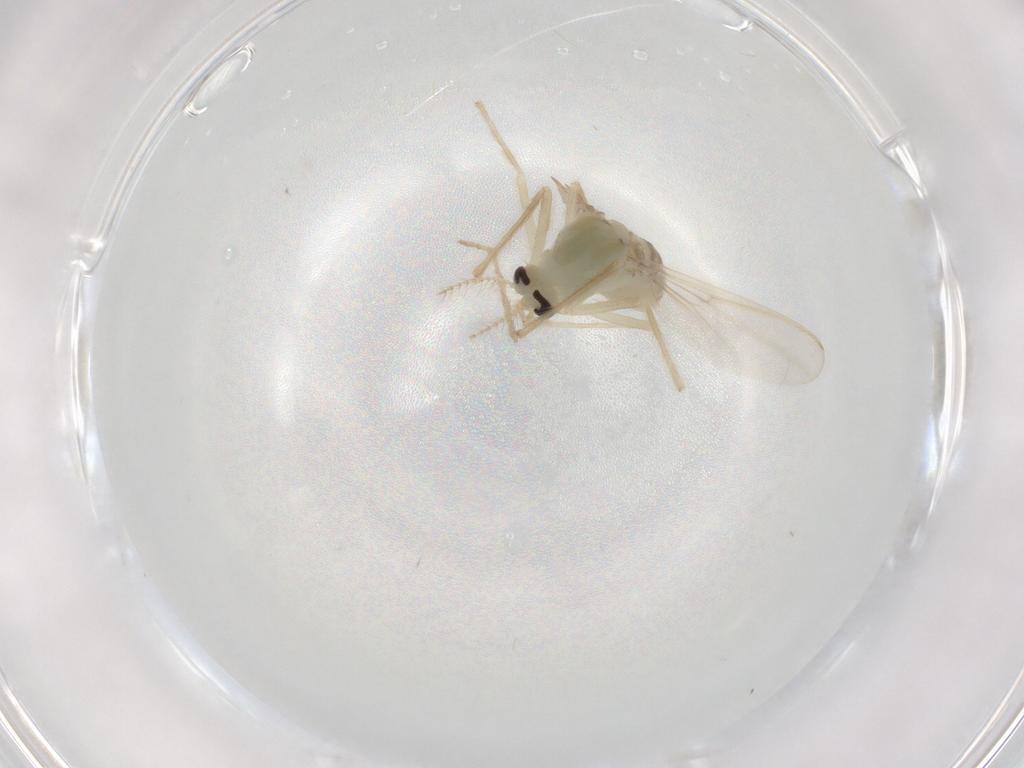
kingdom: Animalia
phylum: Arthropoda
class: Insecta
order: Diptera
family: Chironomidae
